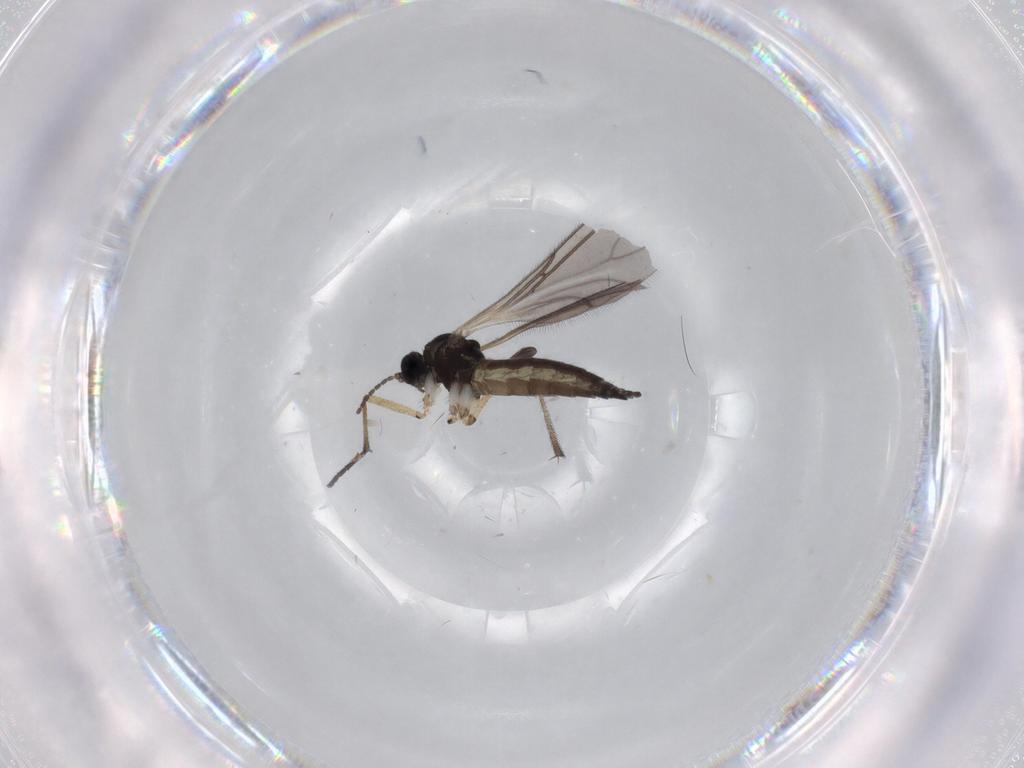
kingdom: Animalia
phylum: Arthropoda
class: Insecta
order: Diptera
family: Sciaridae
